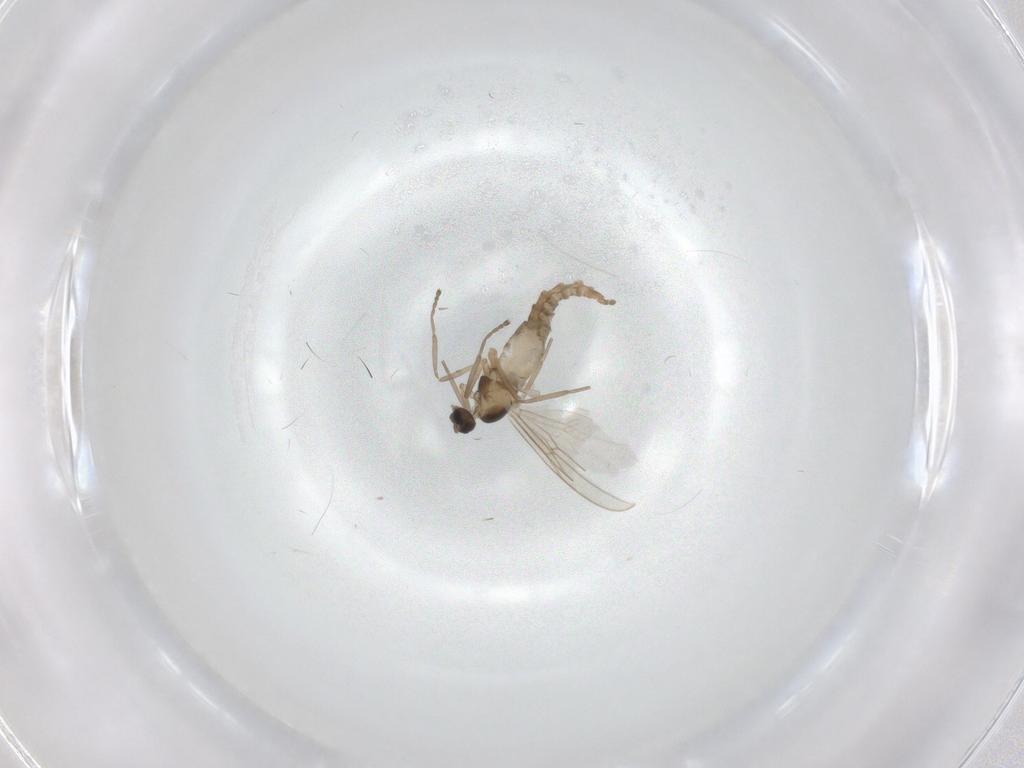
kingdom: Animalia
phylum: Arthropoda
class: Insecta
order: Diptera
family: Cecidomyiidae
